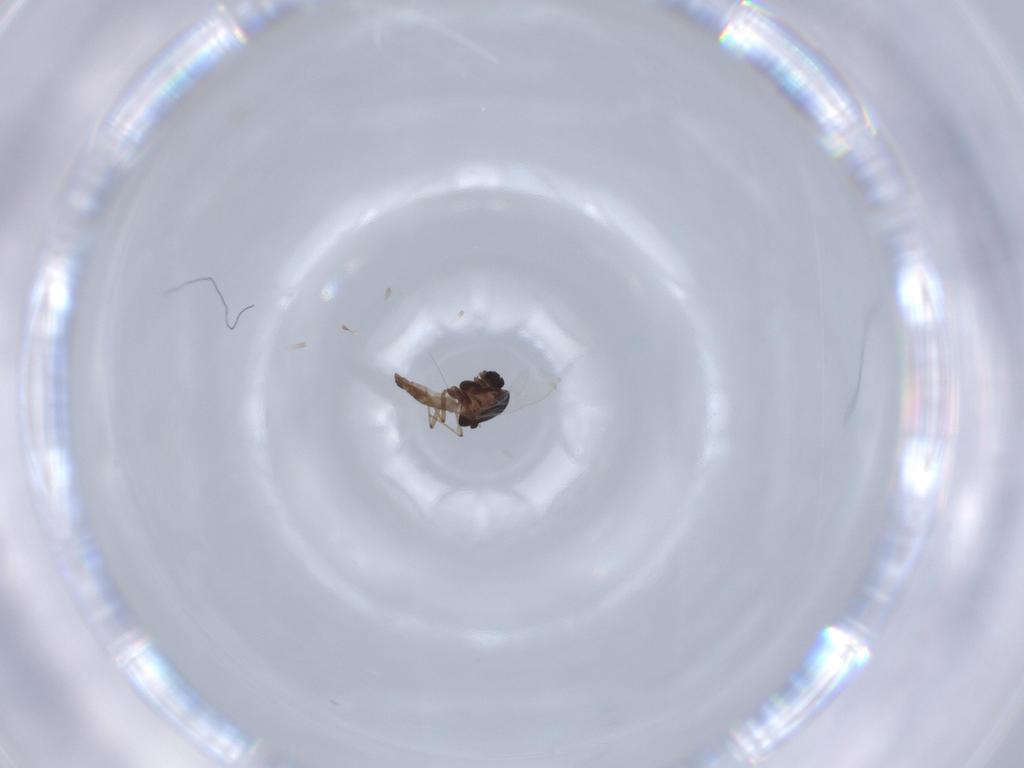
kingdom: Animalia
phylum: Arthropoda
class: Insecta
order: Diptera
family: Chironomidae
